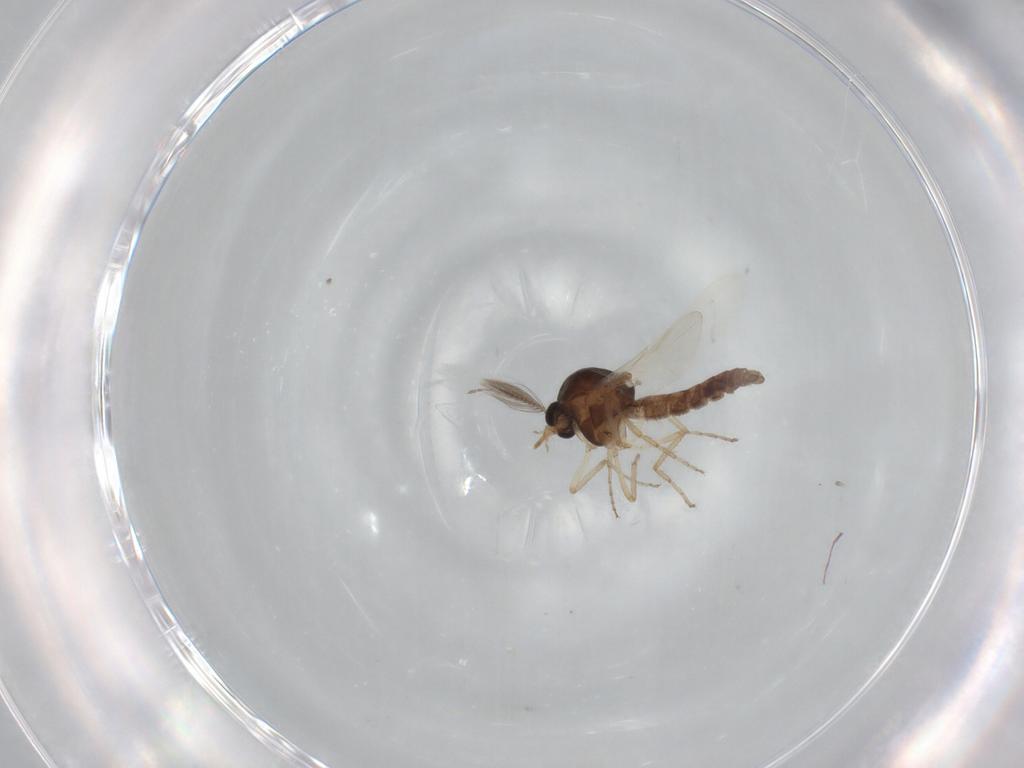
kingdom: Animalia
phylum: Arthropoda
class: Insecta
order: Diptera
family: Ceratopogonidae
